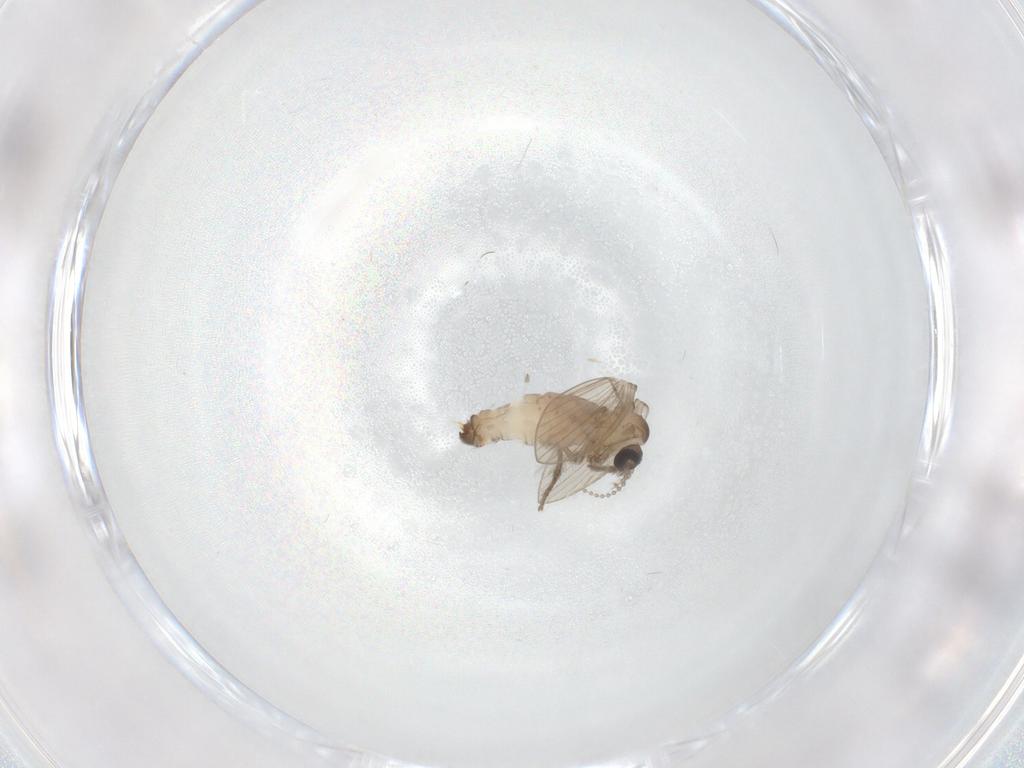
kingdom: Animalia
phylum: Arthropoda
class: Insecta
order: Diptera
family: Psychodidae
